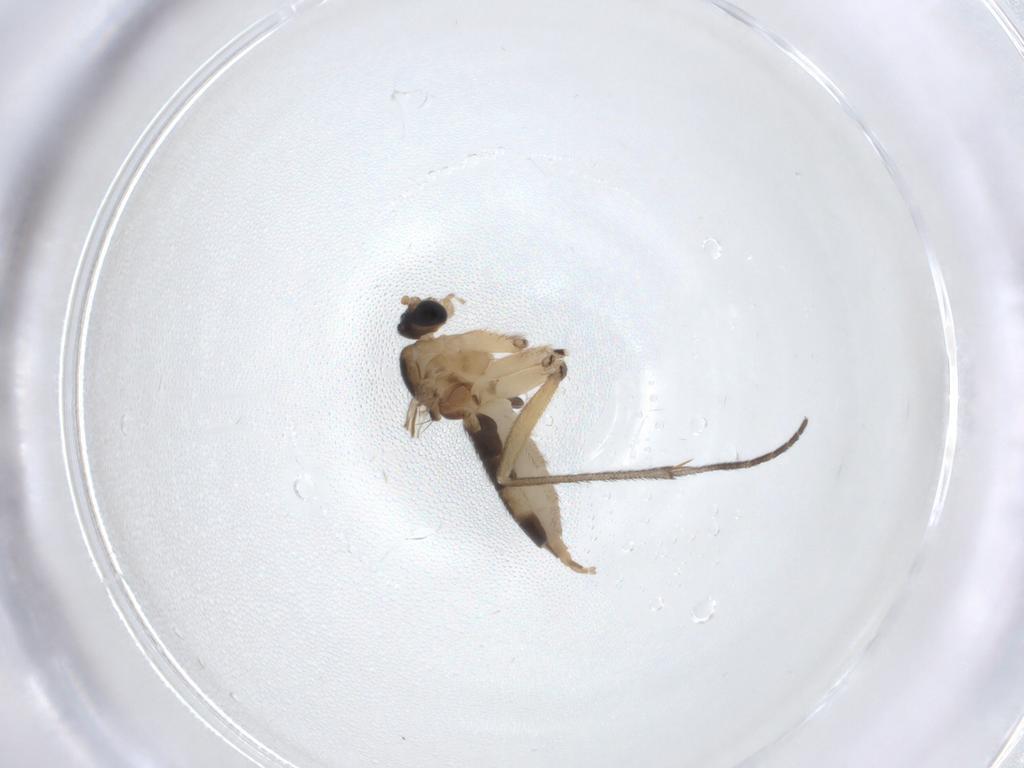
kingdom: Animalia
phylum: Arthropoda
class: Insecta
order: Diptera
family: Sciaridae
